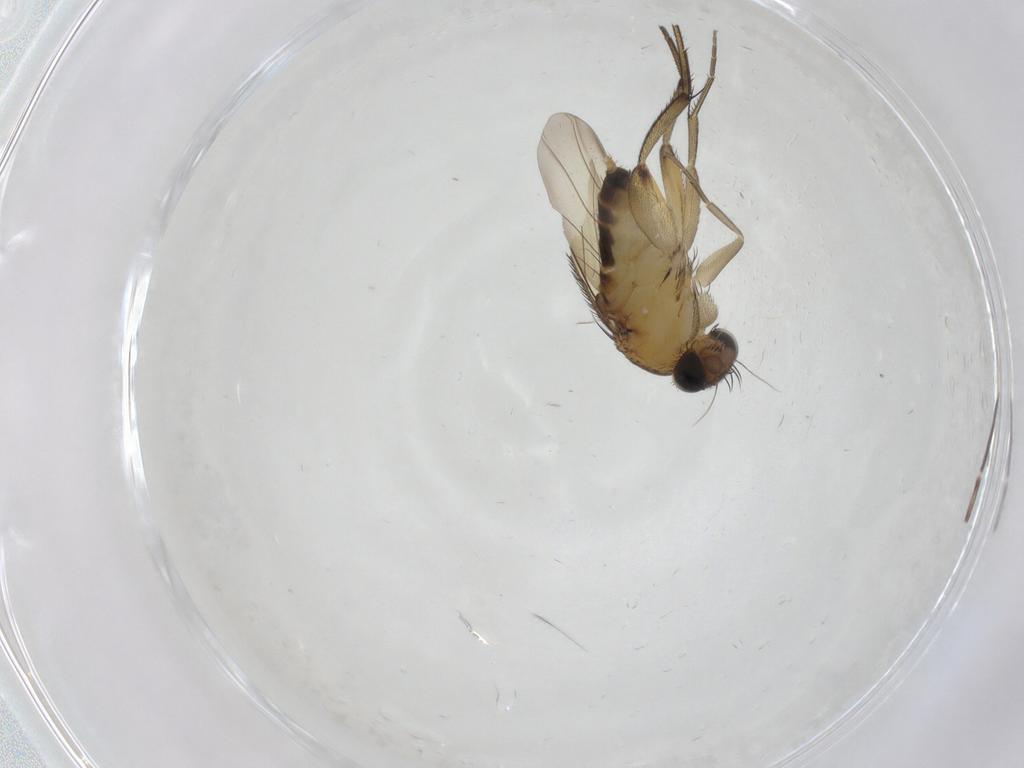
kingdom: Animalia
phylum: Arthropoda
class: Insecta
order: Diptera
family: Phoridae
